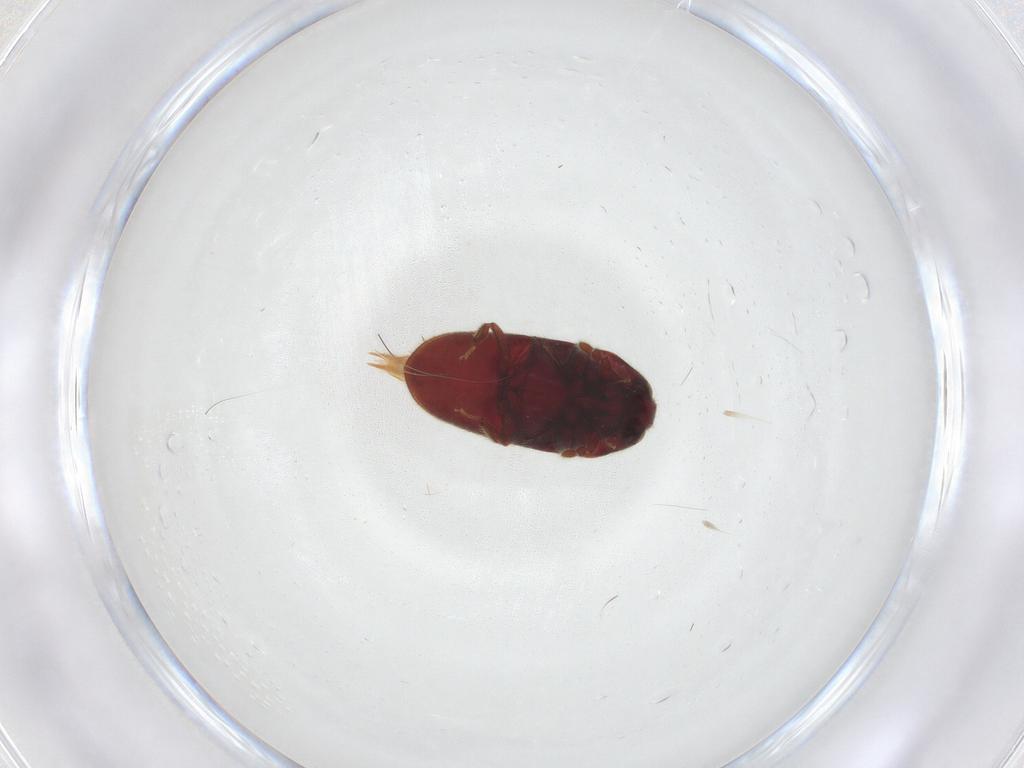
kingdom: Animalia
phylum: Arthropoda
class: Insecta
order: Coleoptera
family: Throscidae
